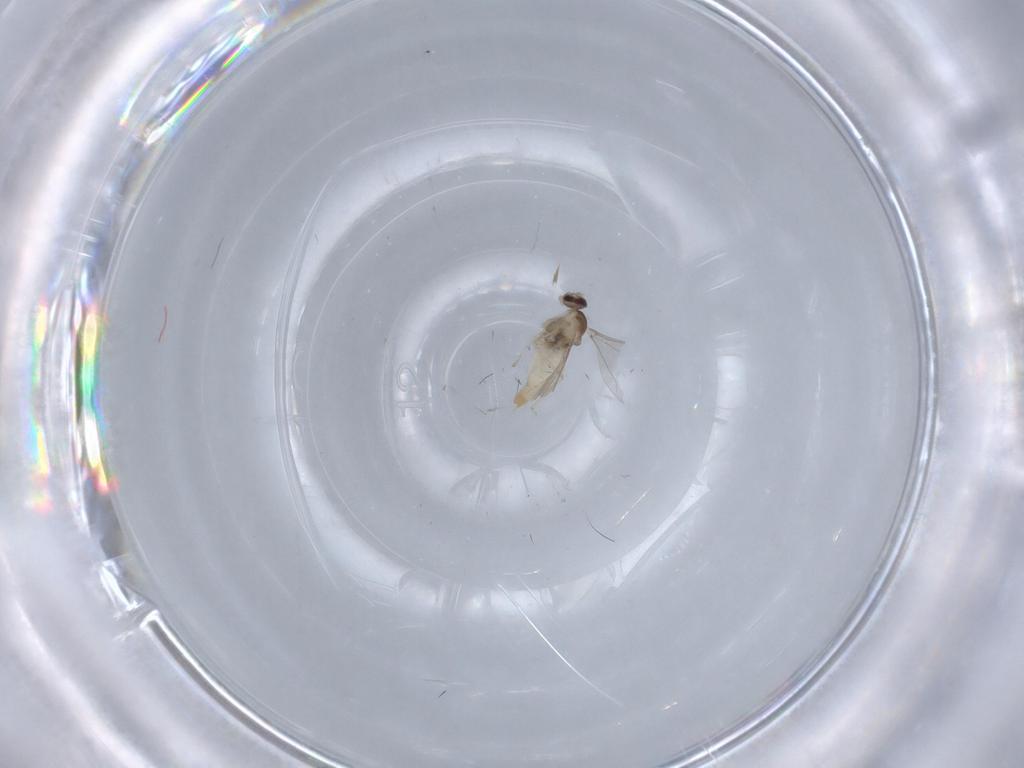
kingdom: Animalia
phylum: Arthropoda
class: Insecta
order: Diptera
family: Cecidomyiidae
